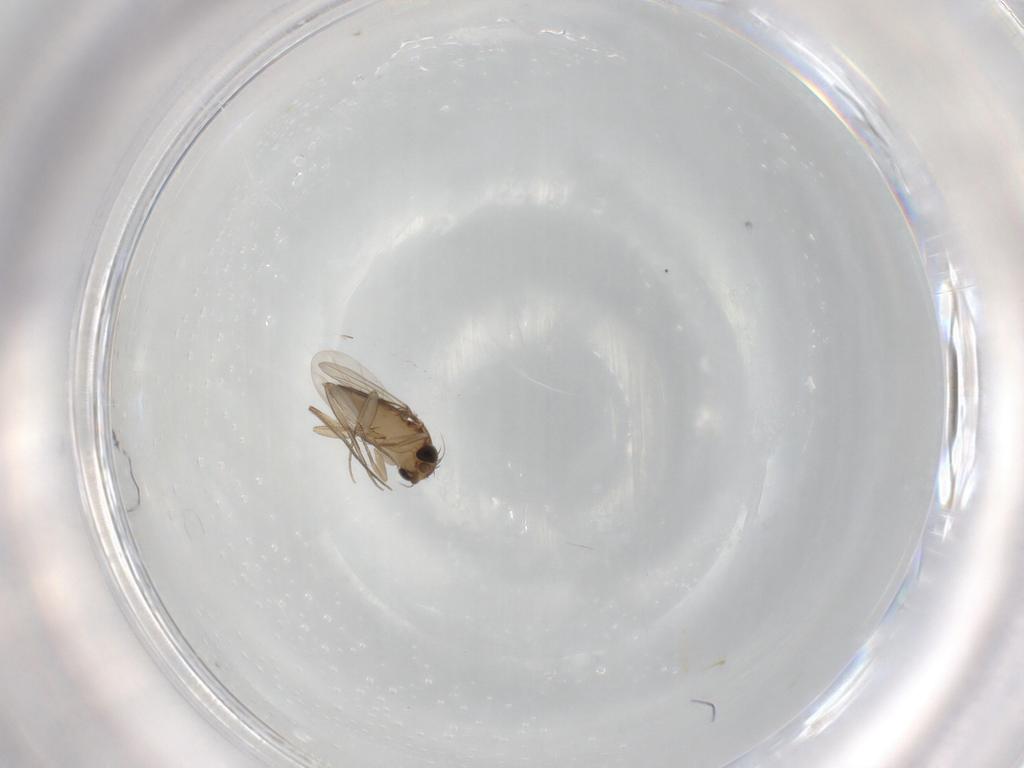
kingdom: Animalia
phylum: Arthropoda
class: Insecta
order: Diptera
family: Phoridae
